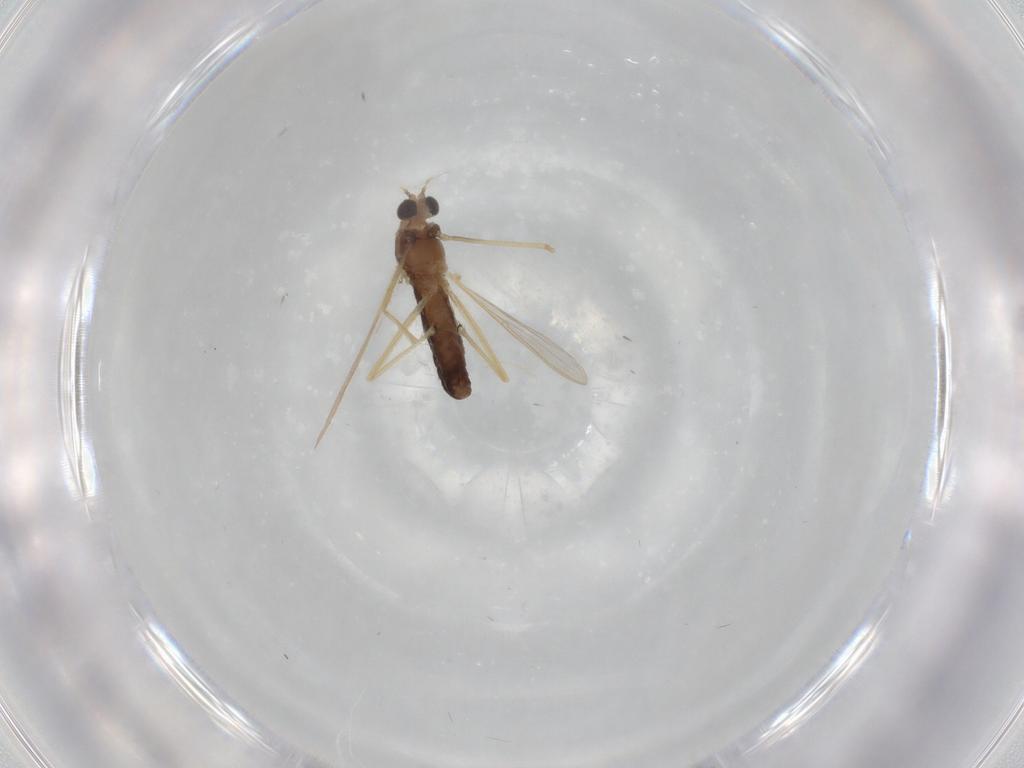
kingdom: Animalia
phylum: Arthropoda
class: Insecta
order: Diptera
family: Chironomidae
